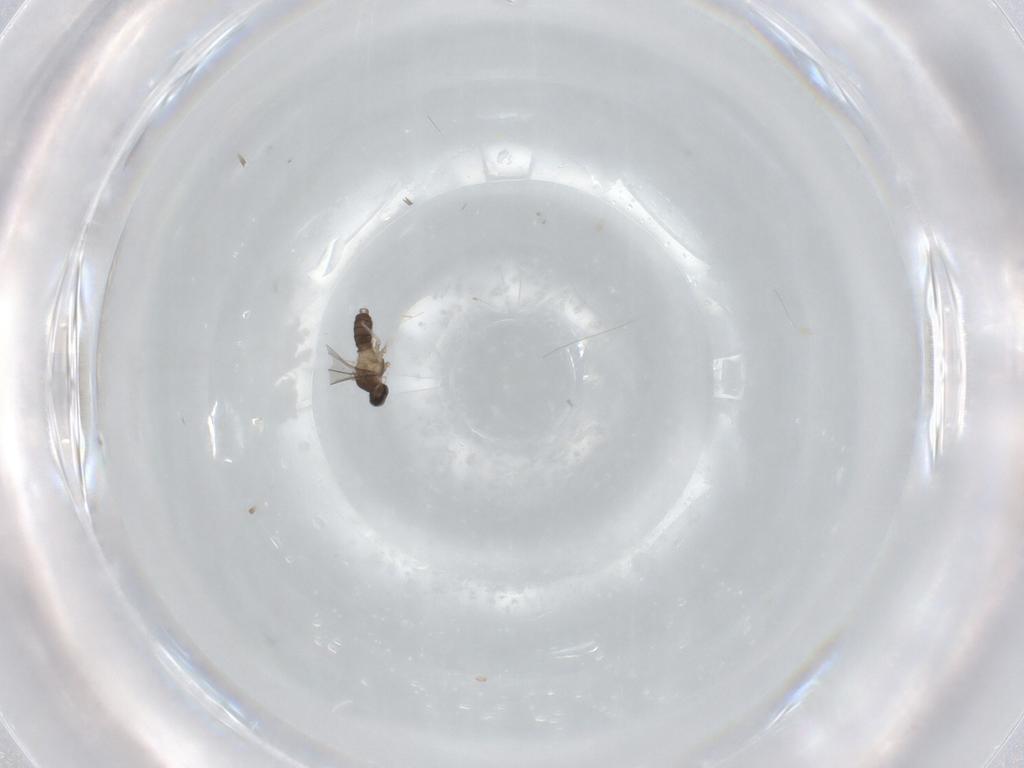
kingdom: Animalia
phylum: Arthropoda
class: Insecta
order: Diptera
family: Cecidomyiidae
